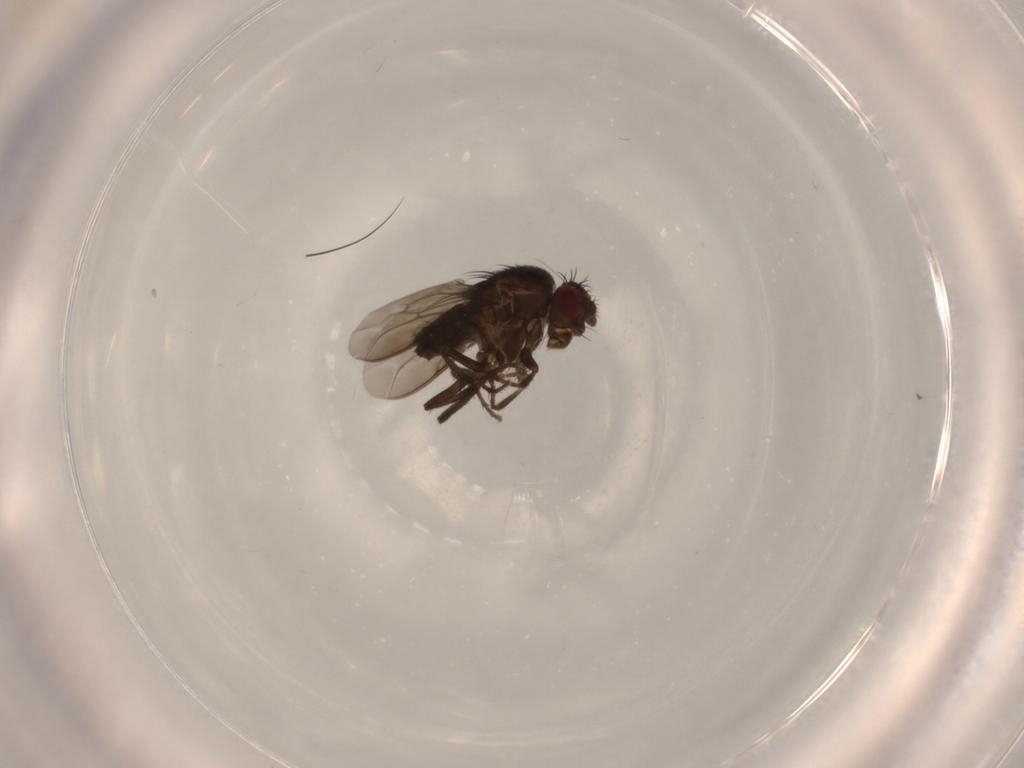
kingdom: Animalia
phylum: Arthropoda
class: Insecta
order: Diptera
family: Sphaeroceridae
